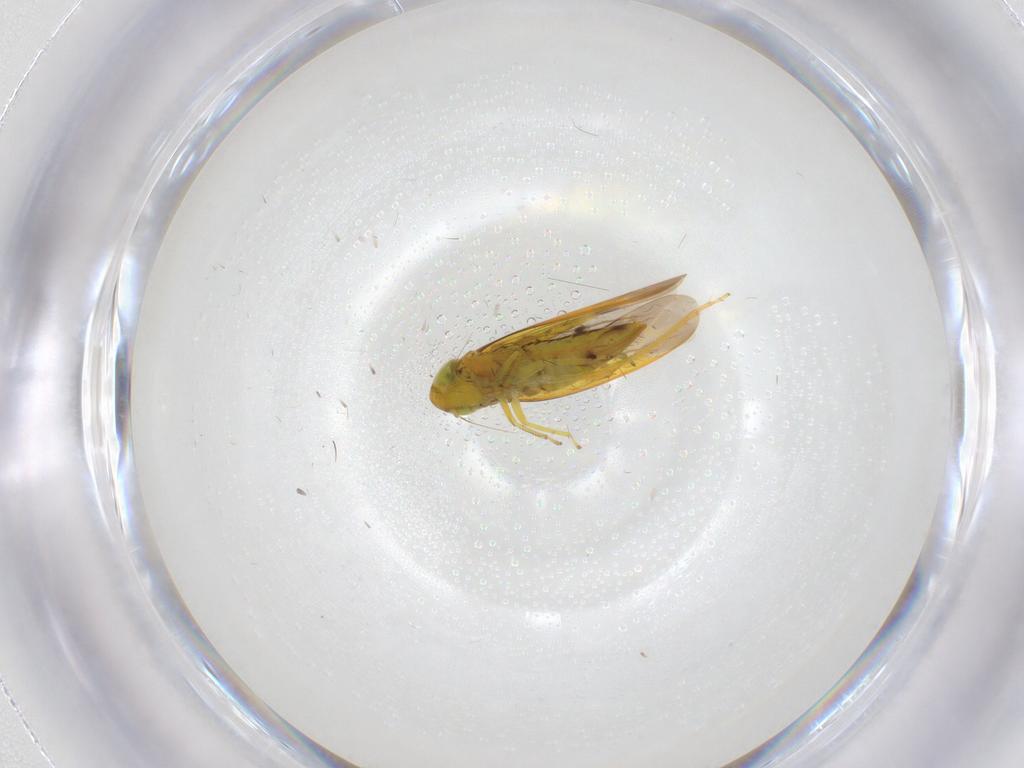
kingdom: Animalia
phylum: Arthropoda
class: Insecta
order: Hemiptera
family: Cicadellidae
